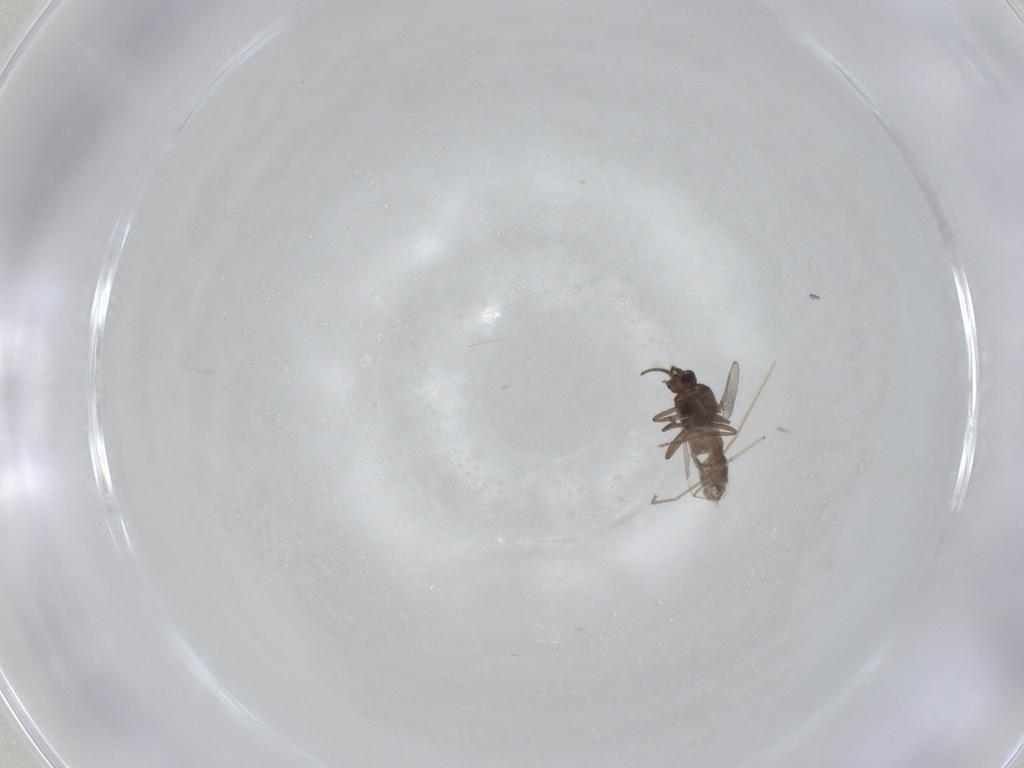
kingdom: Animalia
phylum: Arthropoda
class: Insecta
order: Diptera
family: Ceratopogonidae
